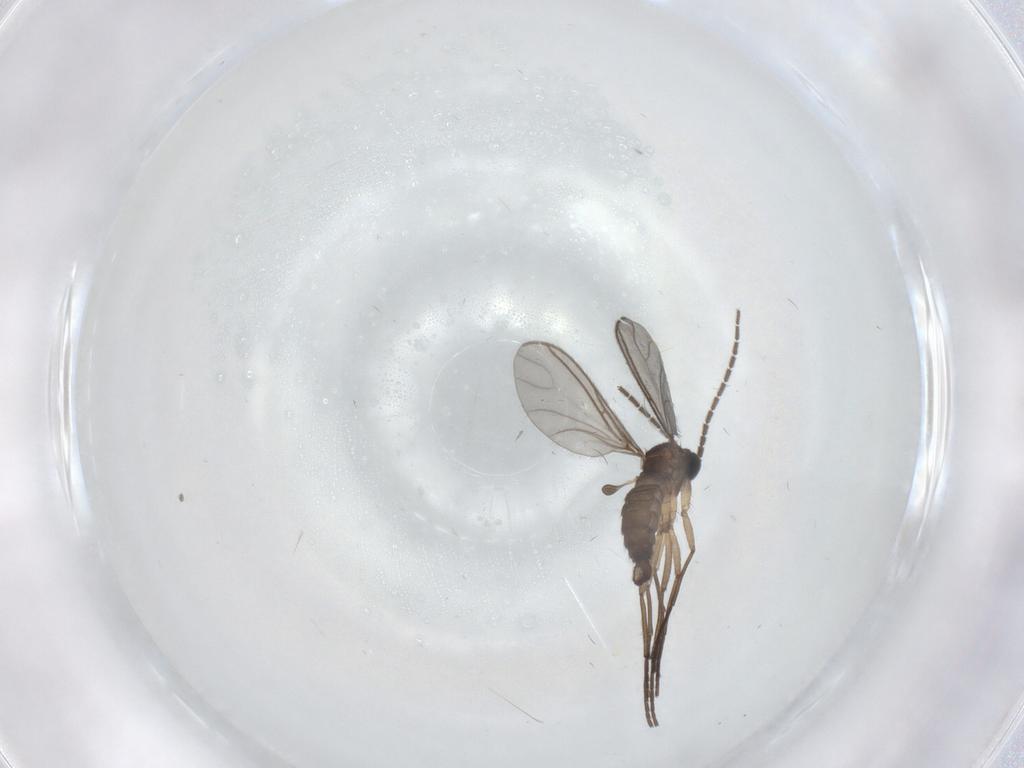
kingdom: Animalia
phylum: Arthropoda
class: Insecta
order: Diptera
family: Cecidomyiidae
